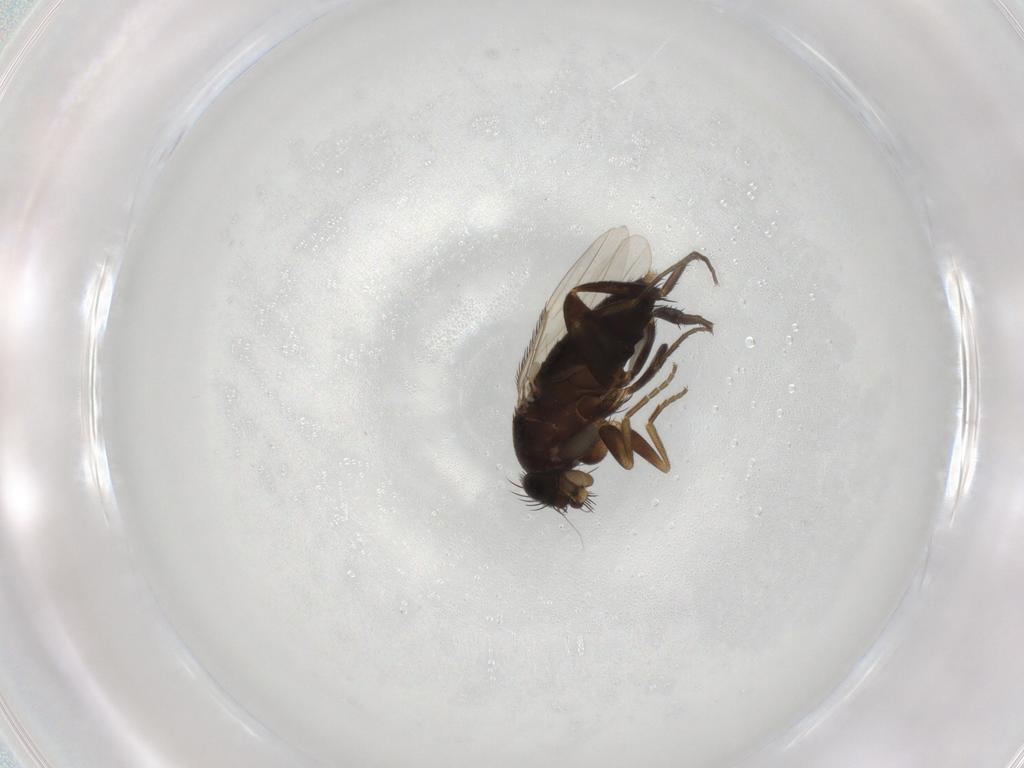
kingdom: Animalia
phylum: Arthropoda
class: Insecta
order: Diptera
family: Phoridae
